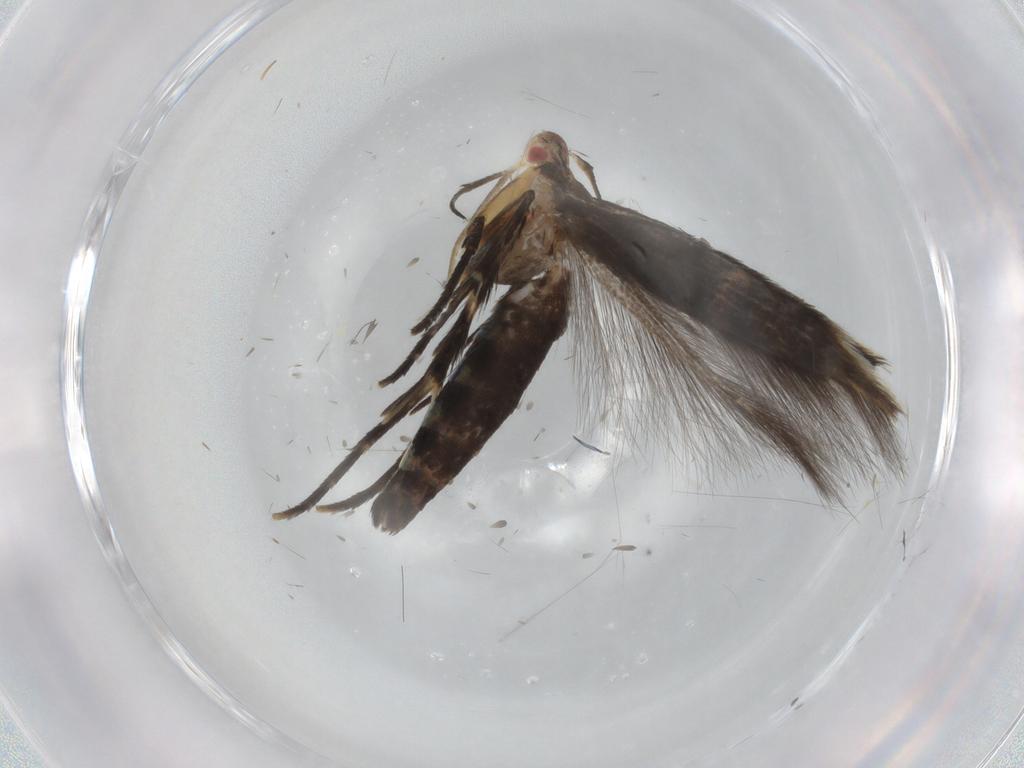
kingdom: Animalia
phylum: Arthropoda
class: Insecta
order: Lepidoptera
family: Cosmopterigidae
